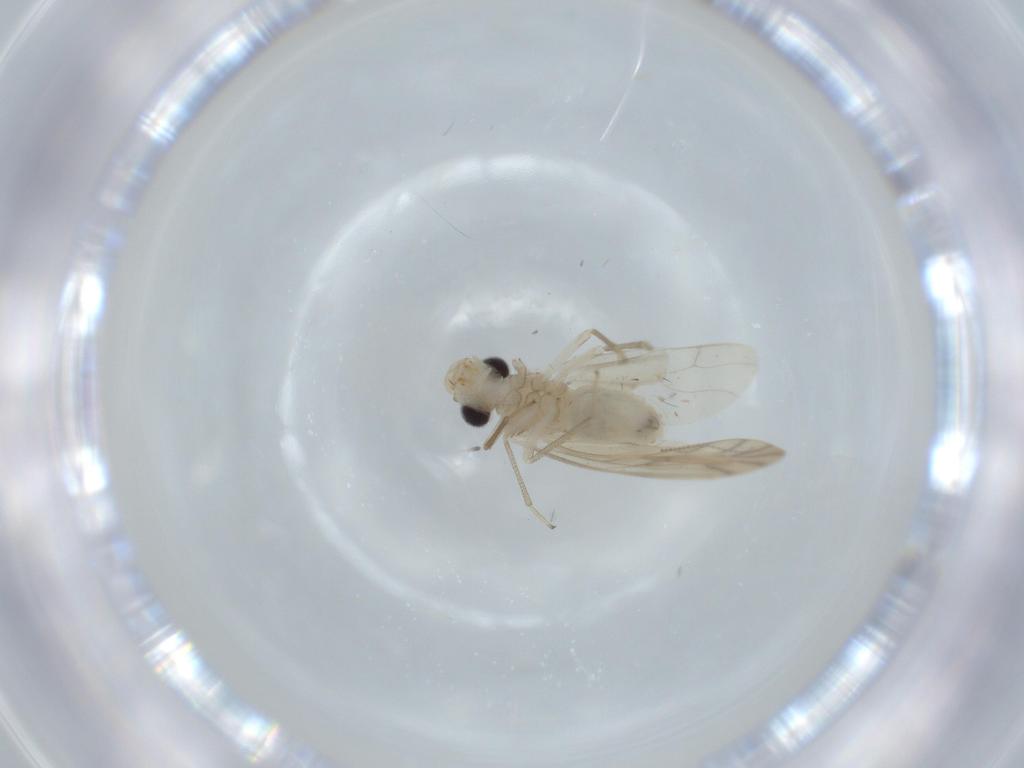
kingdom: Animalia
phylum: Arthropoda
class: Insecta
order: Psocodea
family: Caeciliusidae
